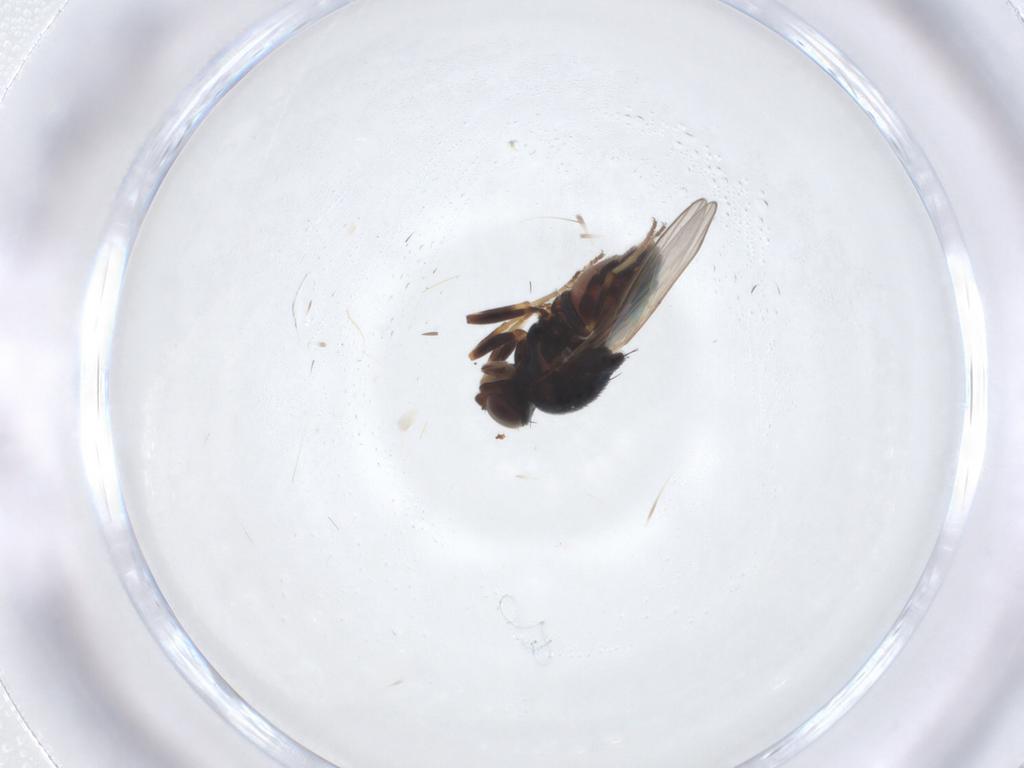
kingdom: Animalia
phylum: Arthropoda
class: Insecta
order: Diptera
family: Chloropidae
